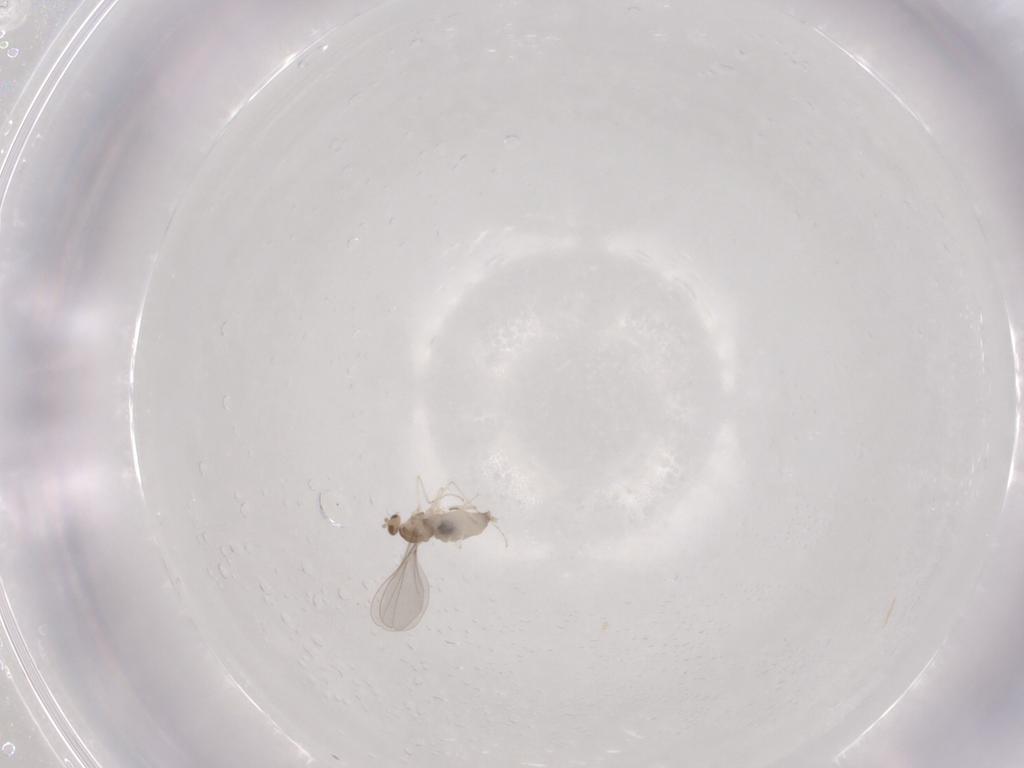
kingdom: Animalia
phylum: Arthropoda
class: Insecta
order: Diptera
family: Cecidomyiidae
